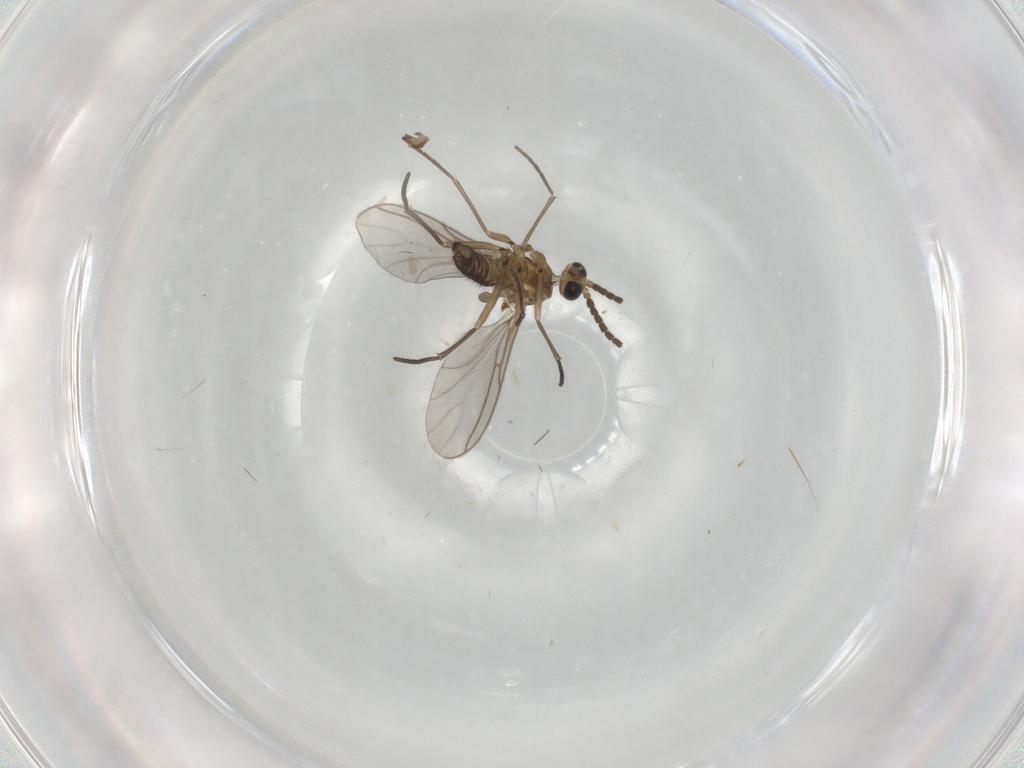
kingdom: Animalia
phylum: Arthropoda
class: Insecta
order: Diptera
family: Sciaridae
